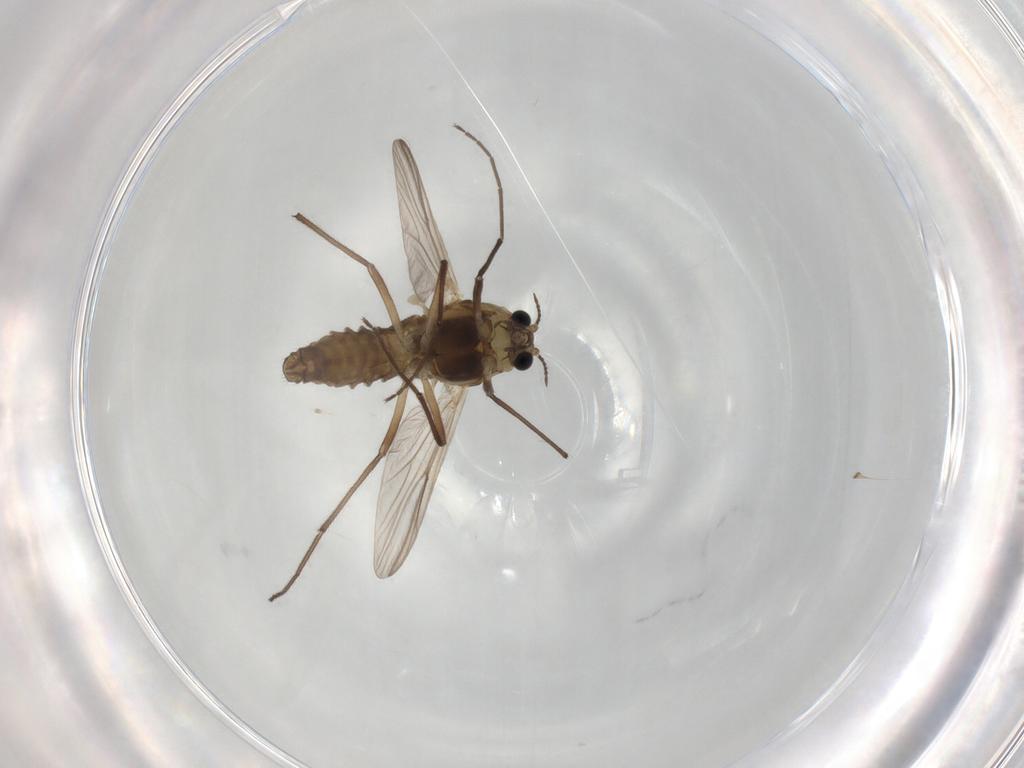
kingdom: Animalia
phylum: Arthropoda
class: Insecta
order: Diptera
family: Chironomidae
